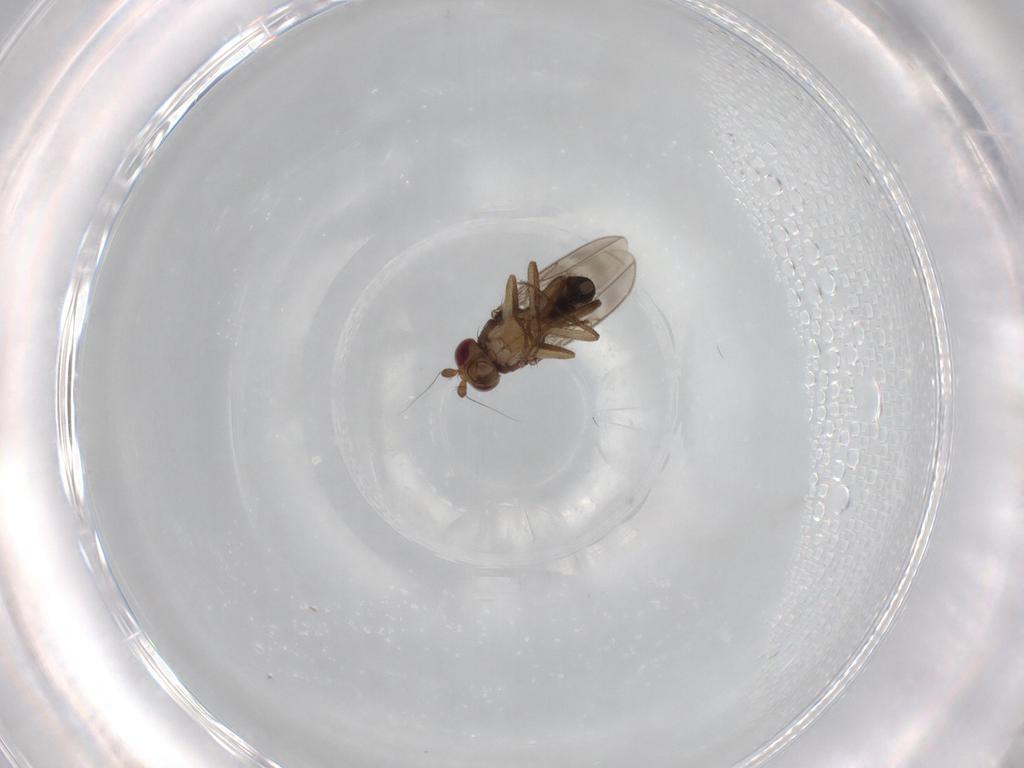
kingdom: Animalia
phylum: Arthropoda
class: Insecta
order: Diptera
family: Sphaeroceridae
